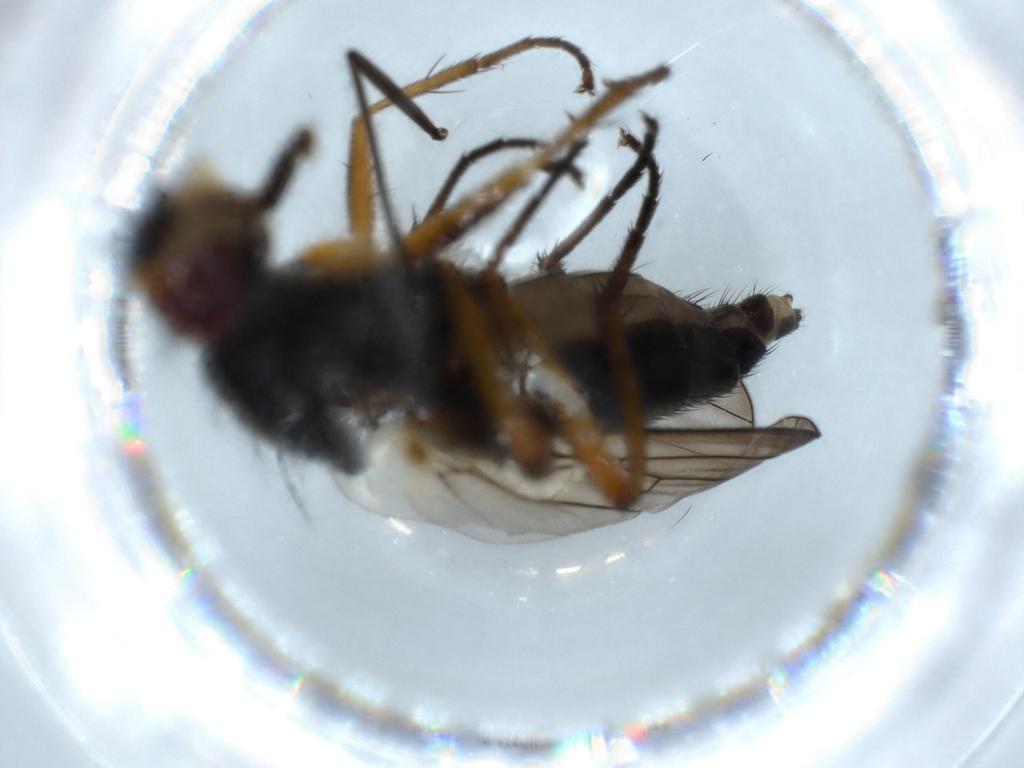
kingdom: Animalia
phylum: Arthropoda
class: Insecta
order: Diptera
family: Scathophagidae
